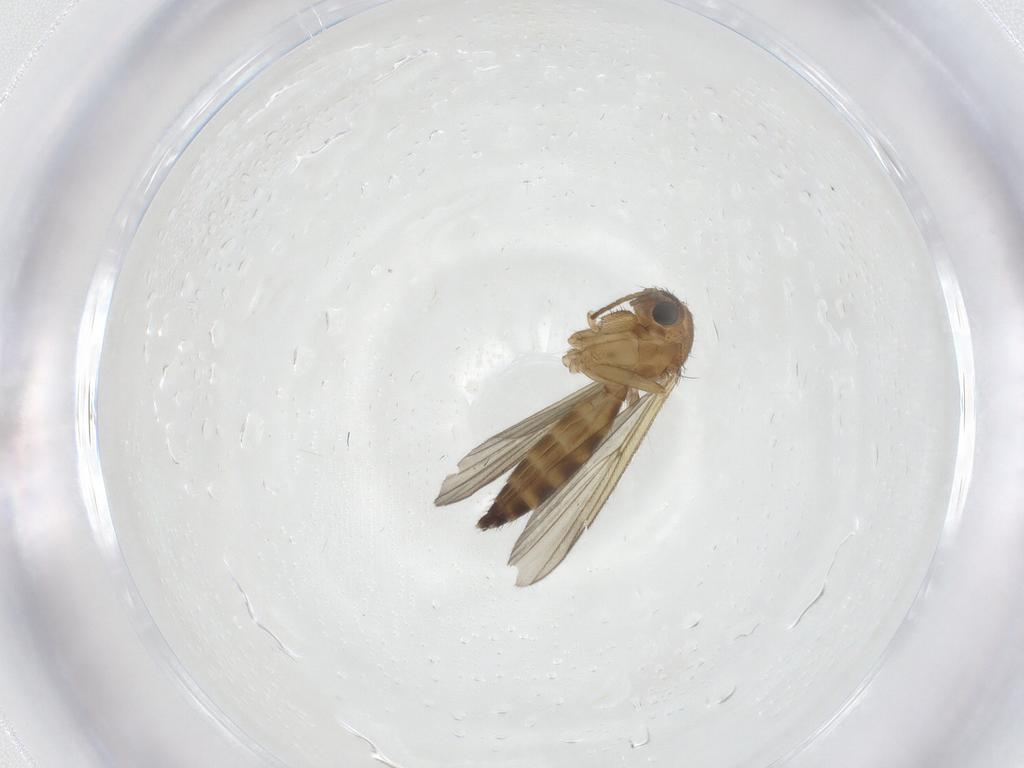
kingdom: Animalia
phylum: Arthropoda
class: Insecta
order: Diptera
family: Mycetophilidae
